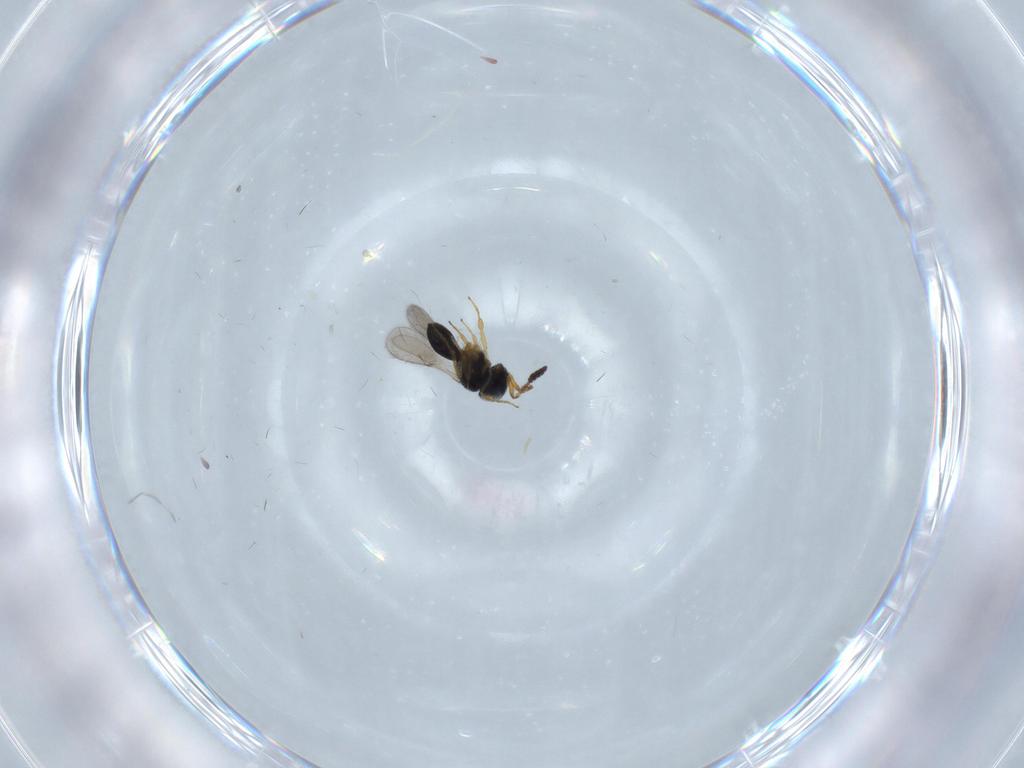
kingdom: Animalia
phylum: Arthropoda
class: Insecta
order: Hymenoptera
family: Scelionidae
